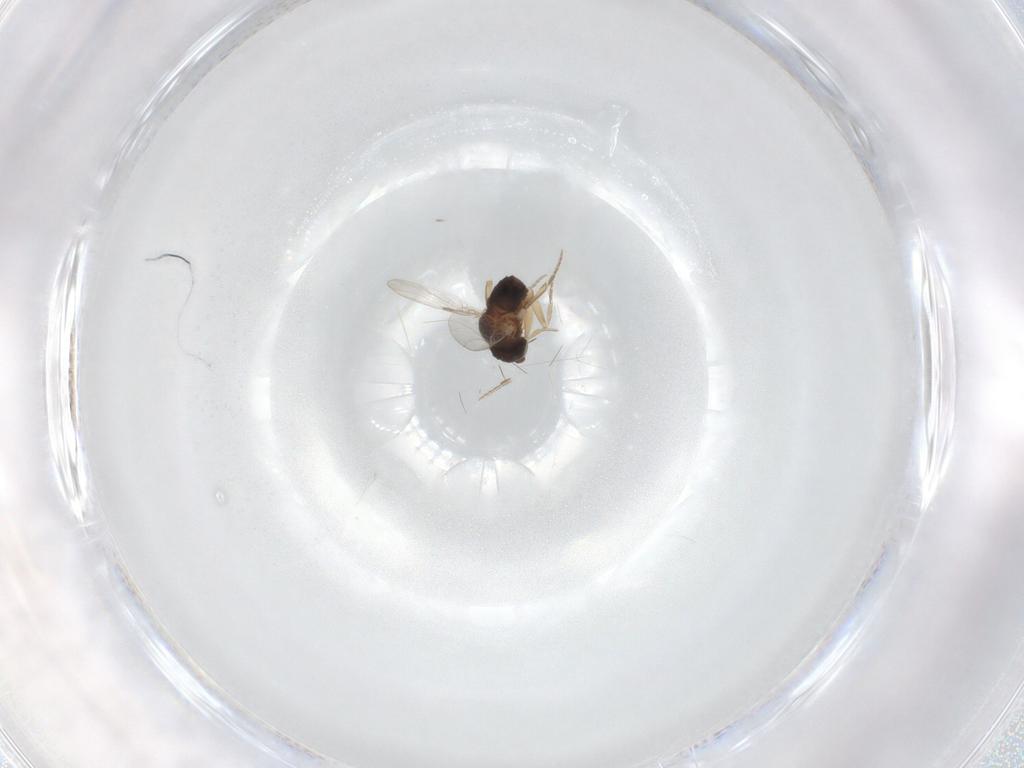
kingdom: Animalia
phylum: Arthropoda
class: Insecta
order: Diptera
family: Phoridae
